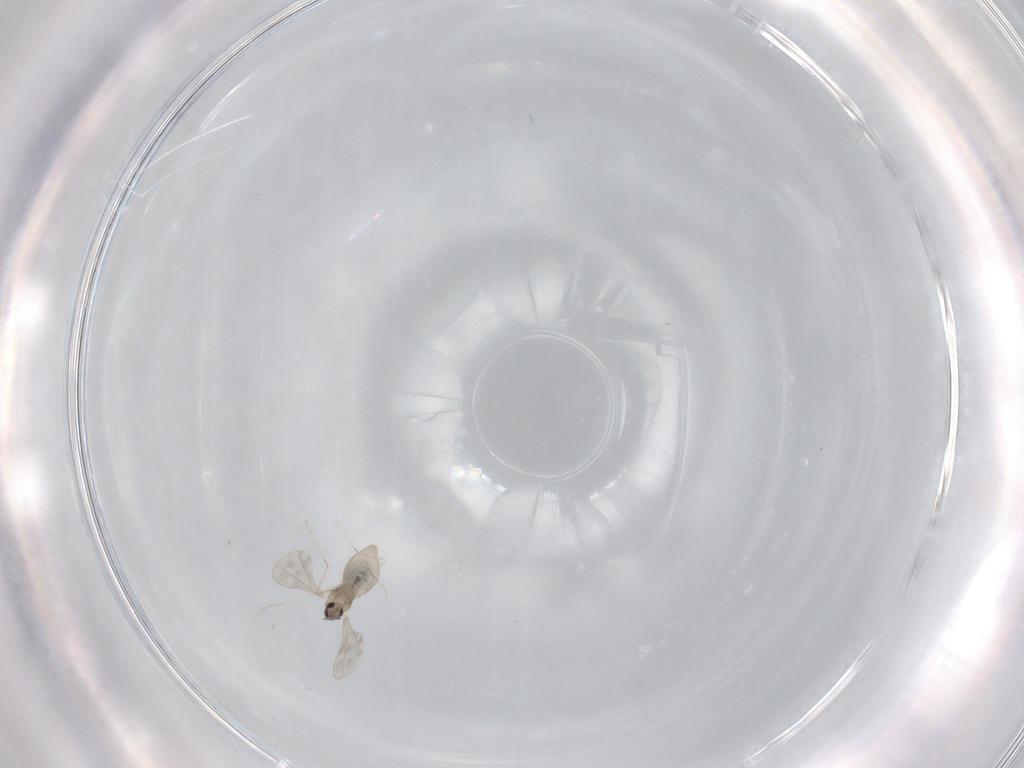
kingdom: Animalia
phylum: Arthropoda
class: Insecta
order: Diptera
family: Cecidomyiidae
